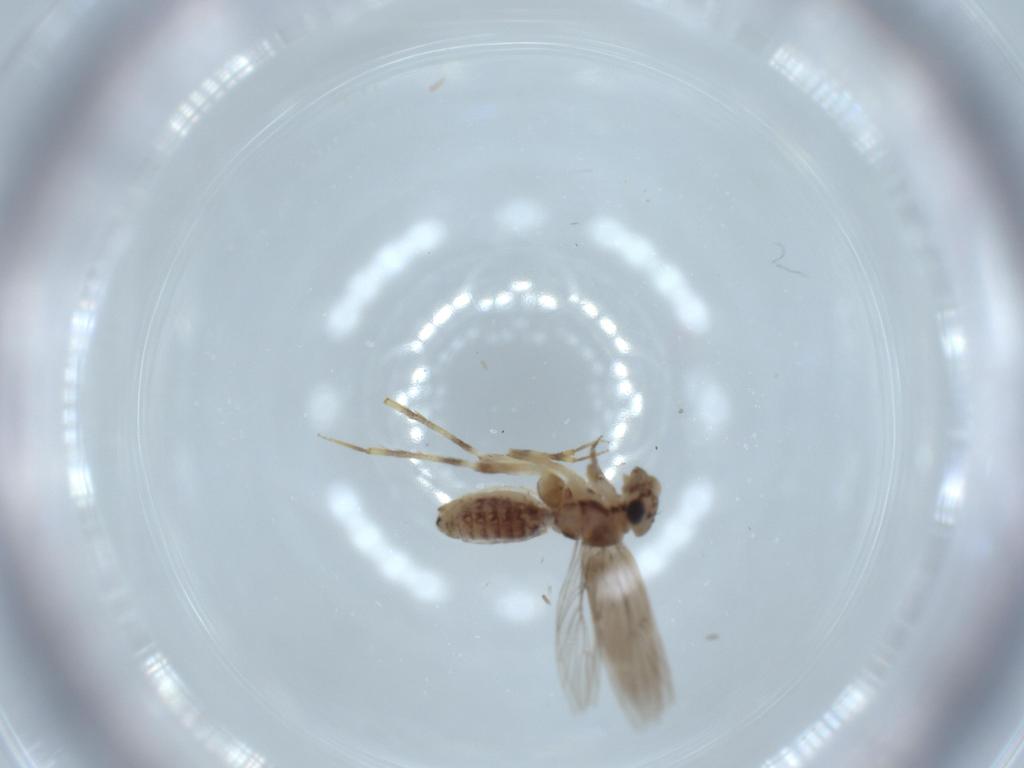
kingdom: Animalia
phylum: Arthropoda
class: Insecta
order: Psocodea
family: Lepidopsocidae
